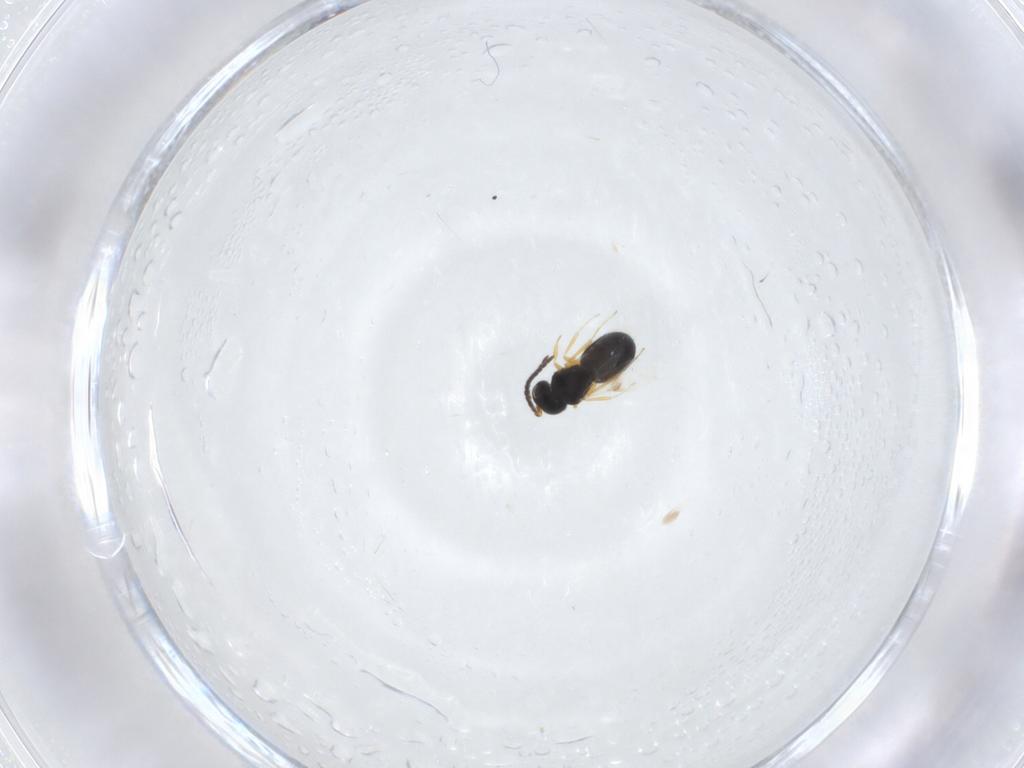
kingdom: Animalia
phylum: Arthropoda
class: Insecta
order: Hymenoptera
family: Scelionidae
